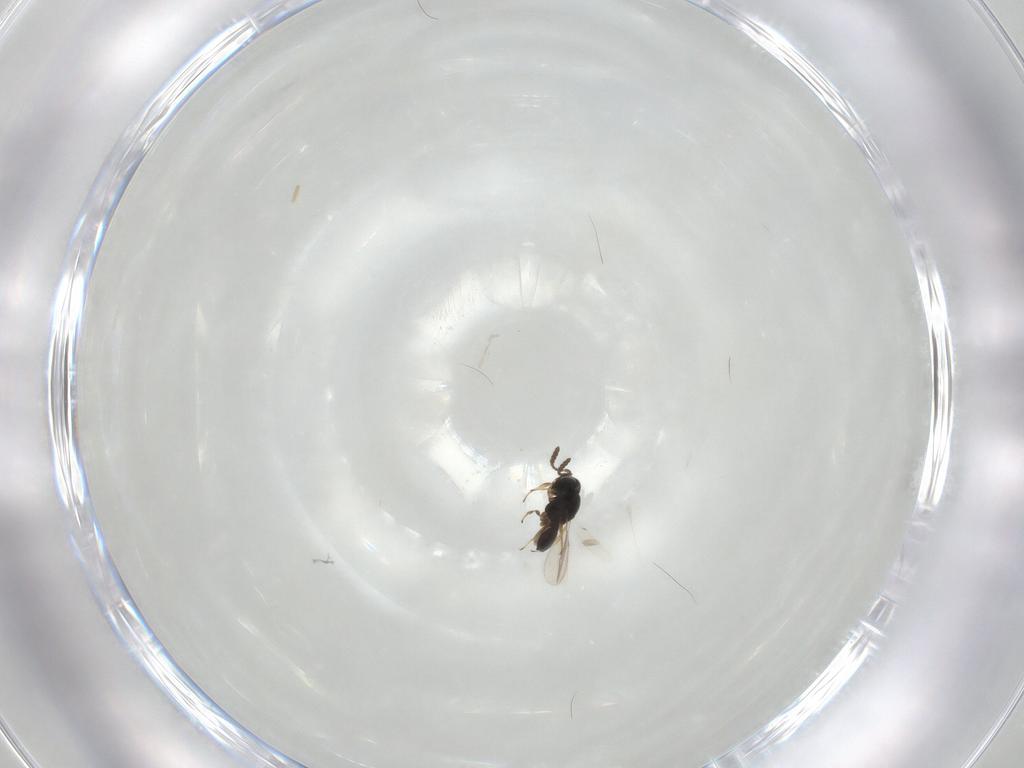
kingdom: Animalia
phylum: Arthropoda
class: Insecta
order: Hymenoptera
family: Scelionidae
